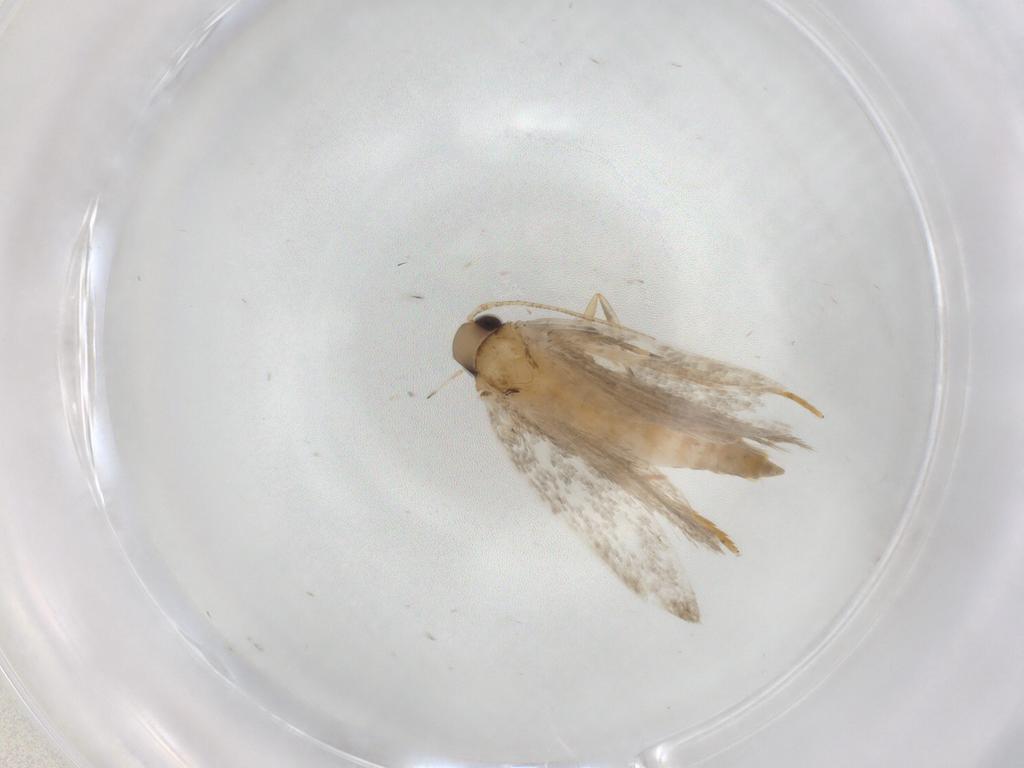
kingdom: Animalia
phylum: Arthropoda
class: Insecta
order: Lepidoptera
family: Autostichidae
